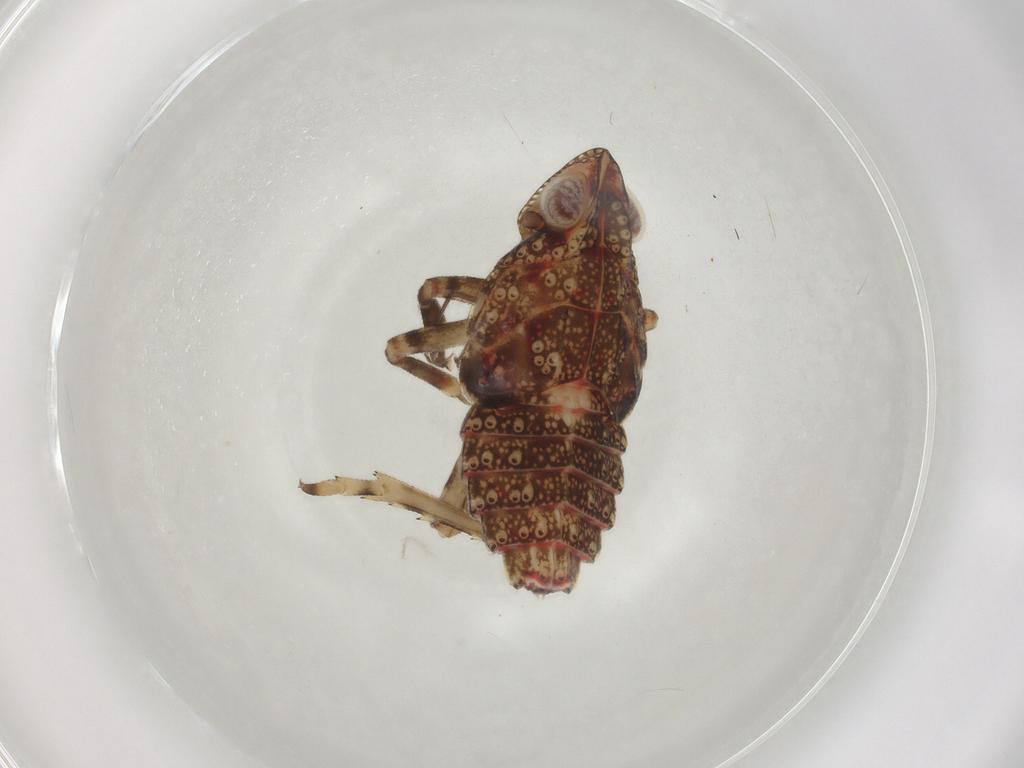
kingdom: Animalia
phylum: Arthropoda
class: Insecta
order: Hemiptera
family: Tropiduchidae
